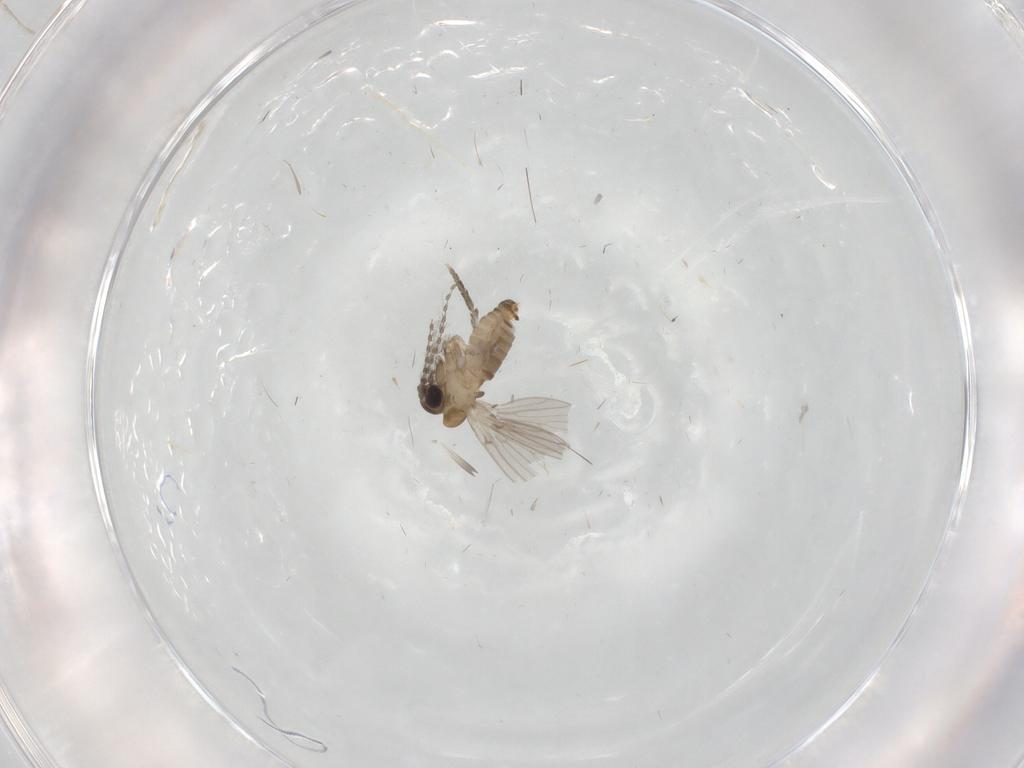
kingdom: Animalia
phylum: Arthropoda
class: Insecta
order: Diptera
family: Psychodidae
